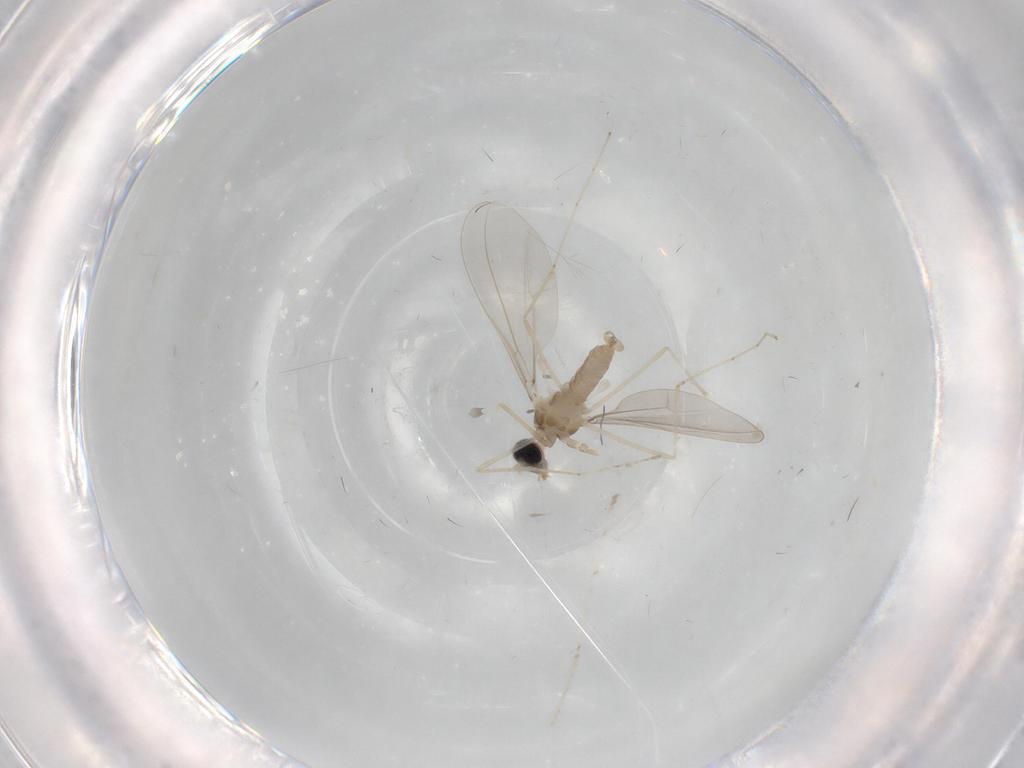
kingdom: Animalia
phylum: Arthropoda
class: Insecta
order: Diptera
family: Cecidomyiidae
